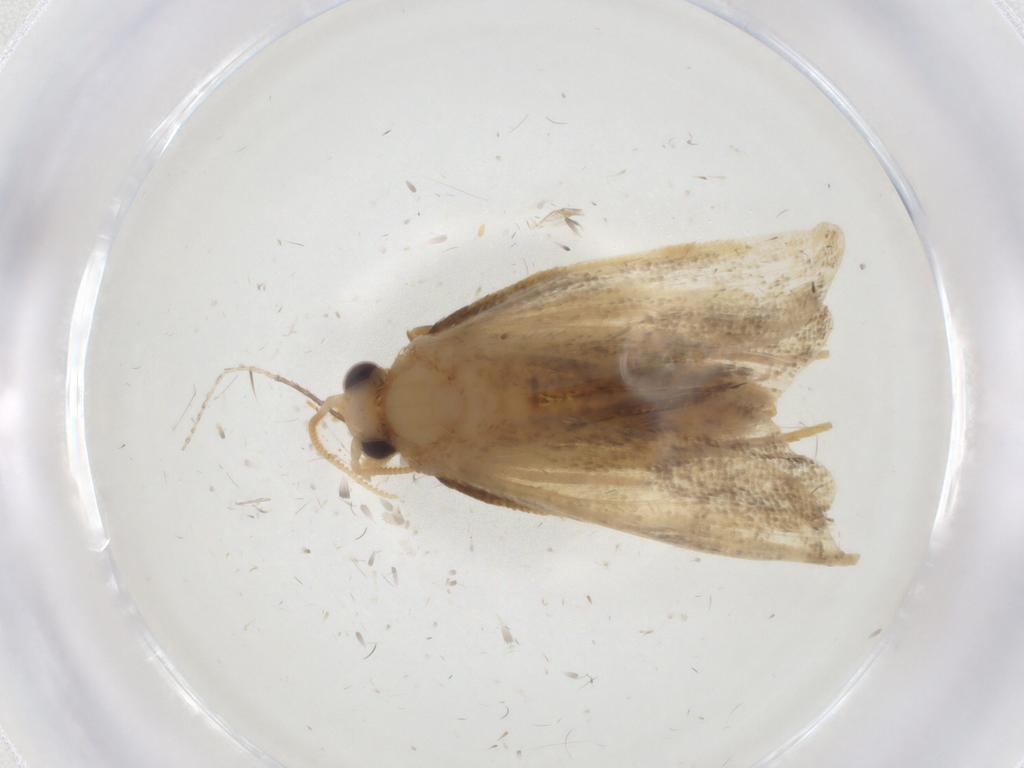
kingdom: Animalia
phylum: Arthropoda
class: Insecta
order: Lepidoptera
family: Psychidae
